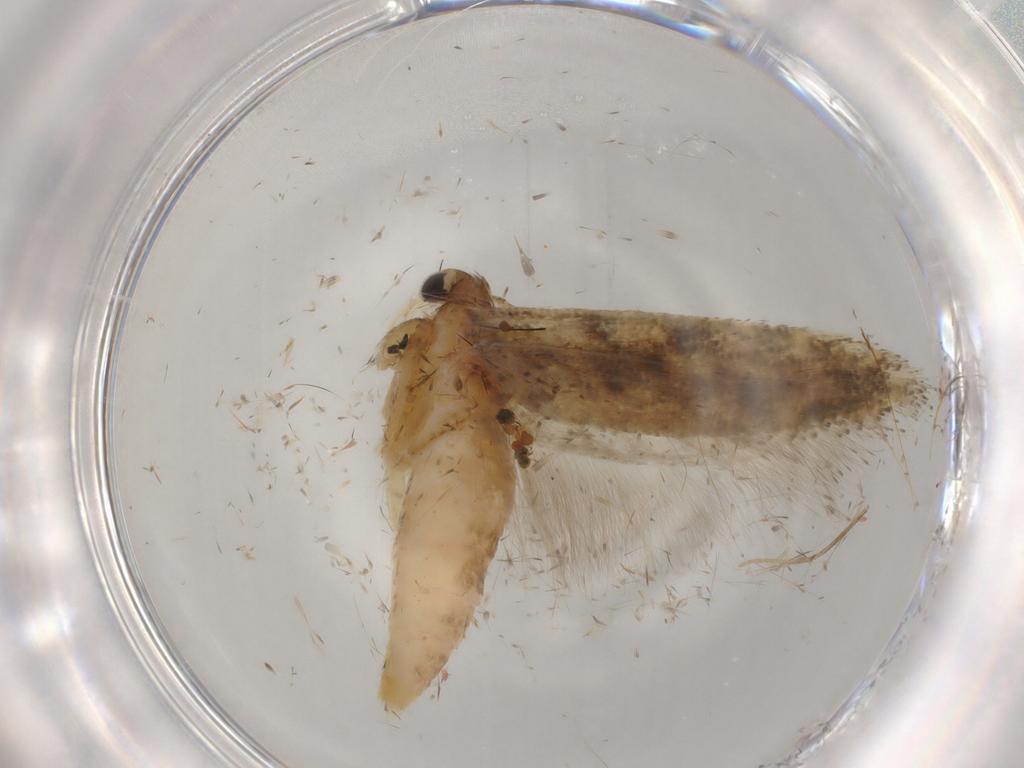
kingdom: Animalia
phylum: Arthropoda
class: Insecta
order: Lepidoptera
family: Gelechiidae
